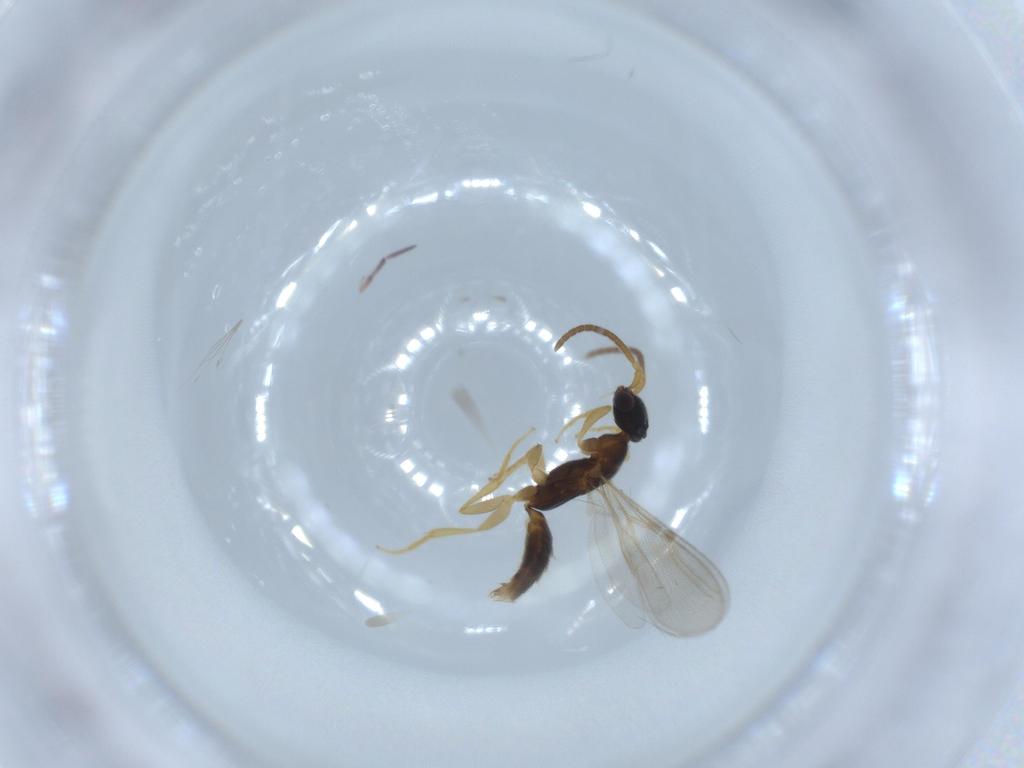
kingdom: Animalia
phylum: Arthropoda
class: Insecta
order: Hymenoptera
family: Bethylidae
